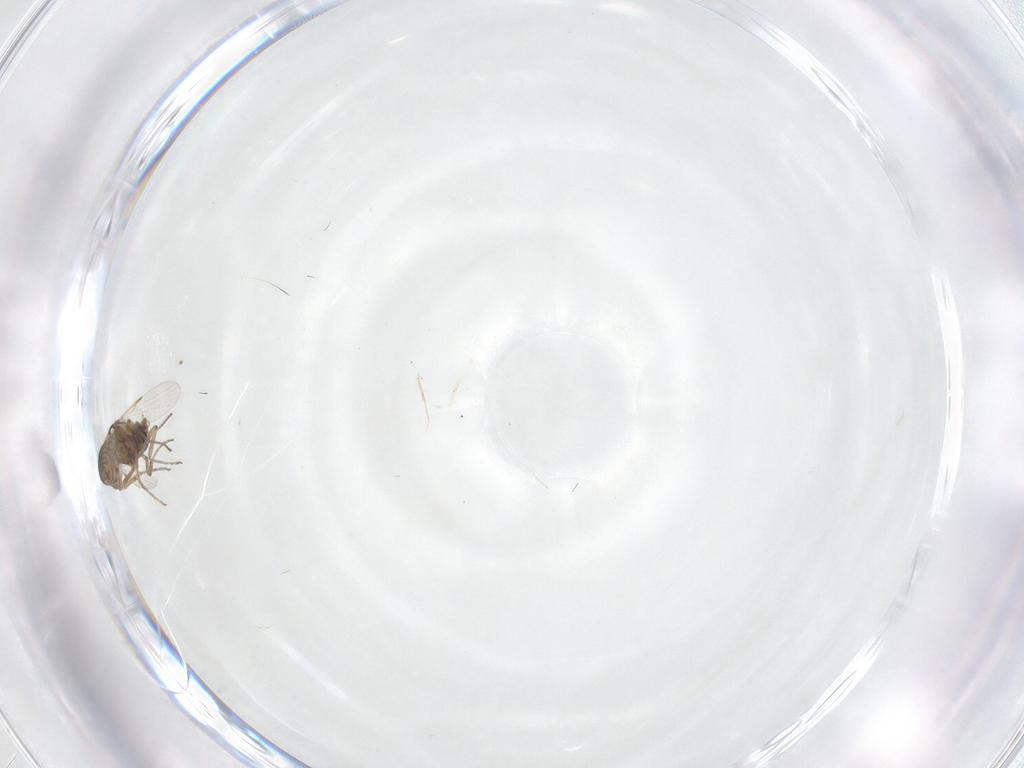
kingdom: Animalia
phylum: Arthropoda
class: Insecta
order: Diptera
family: Ceratopogonidae
